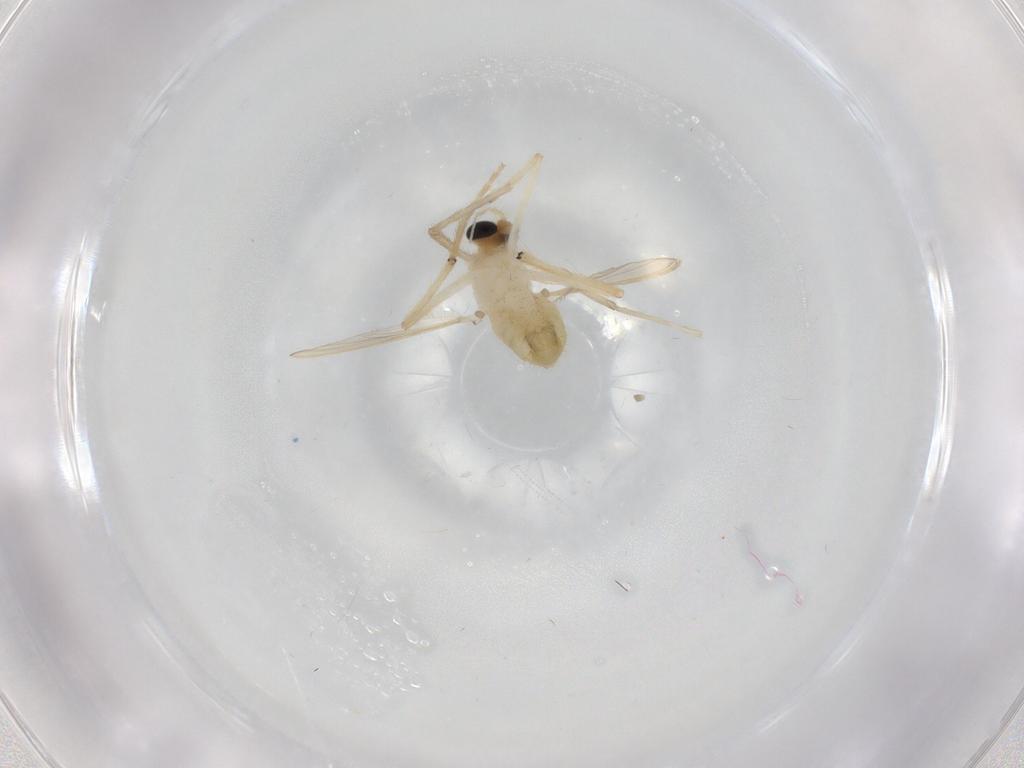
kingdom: Animalia
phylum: Arthropoda
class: Insecta
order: Diptera
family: Chironomidae
